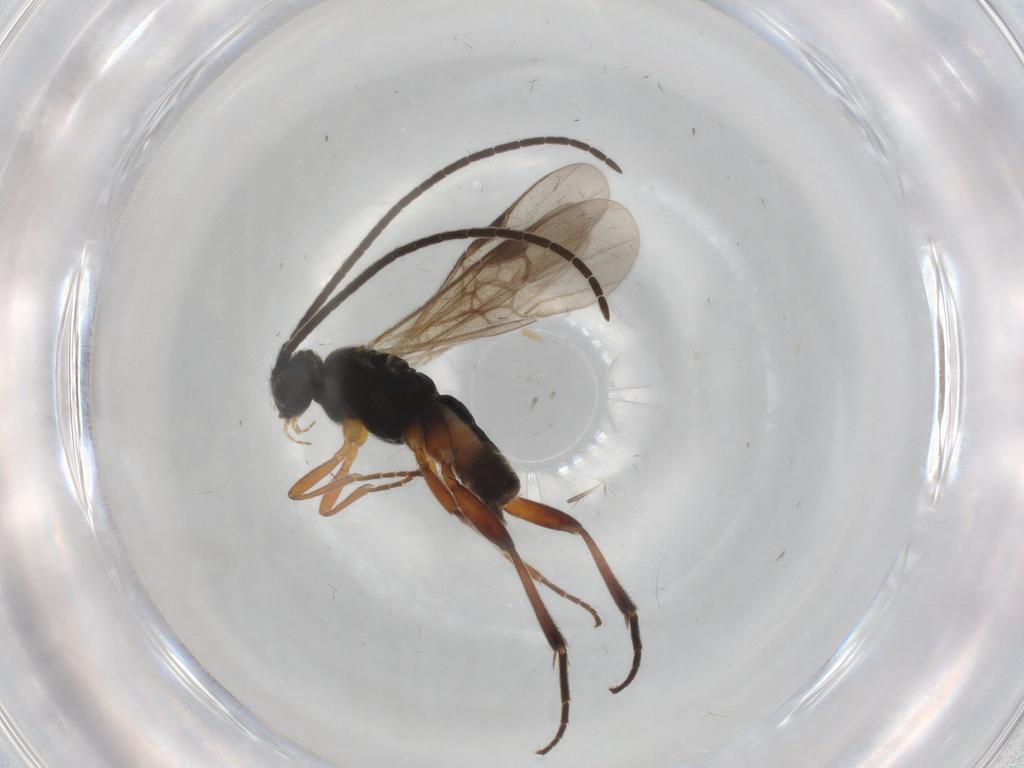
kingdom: Animalia
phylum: Arthropoda
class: Insecta
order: Hymenoptera
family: Braconidae
